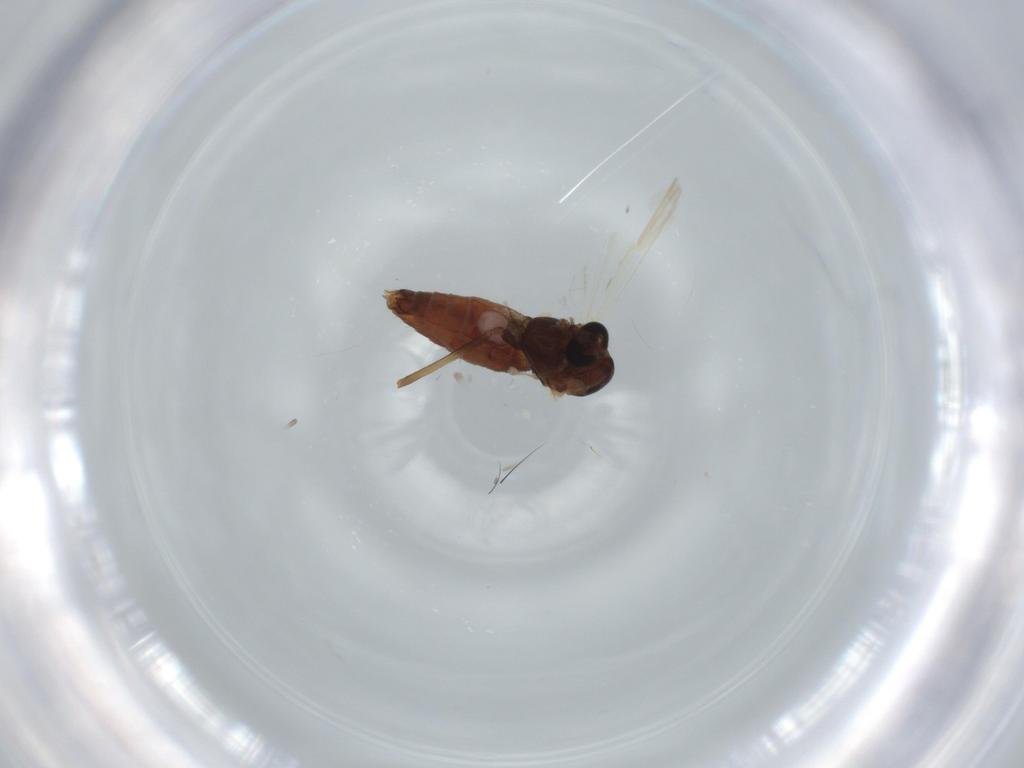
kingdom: Animalia
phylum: Arthropoda
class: Insecta
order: Diptera
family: Chironomidae
